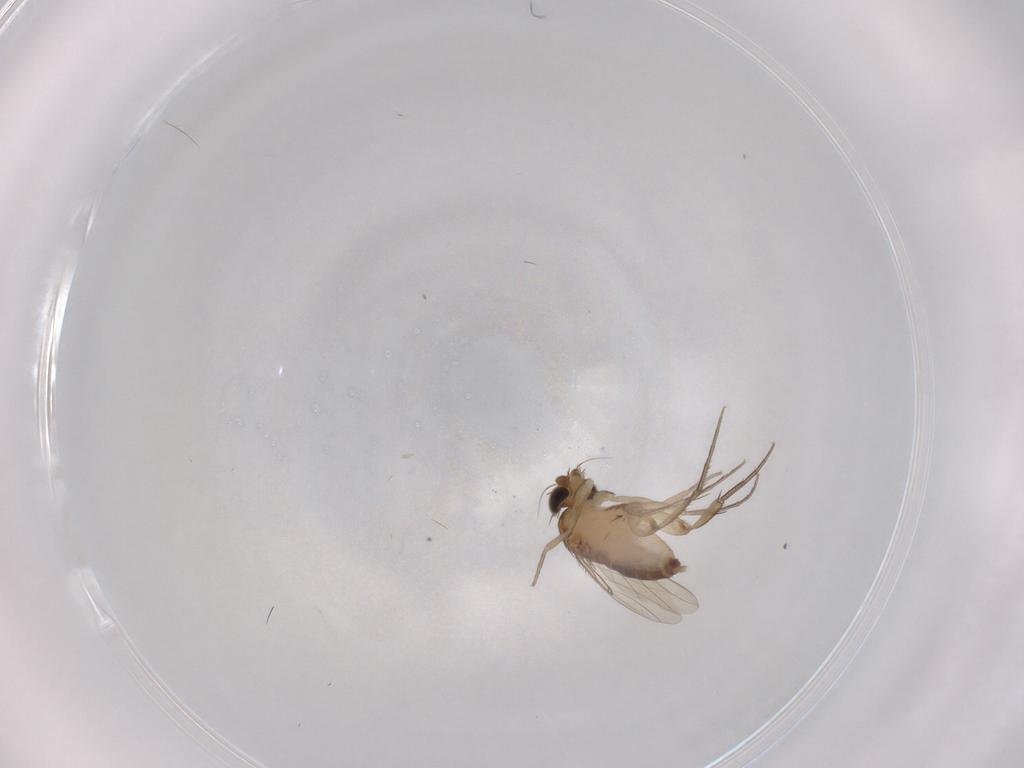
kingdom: Animalia
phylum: Arthropoda
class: Insecta
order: Diptera
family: Phoridae
